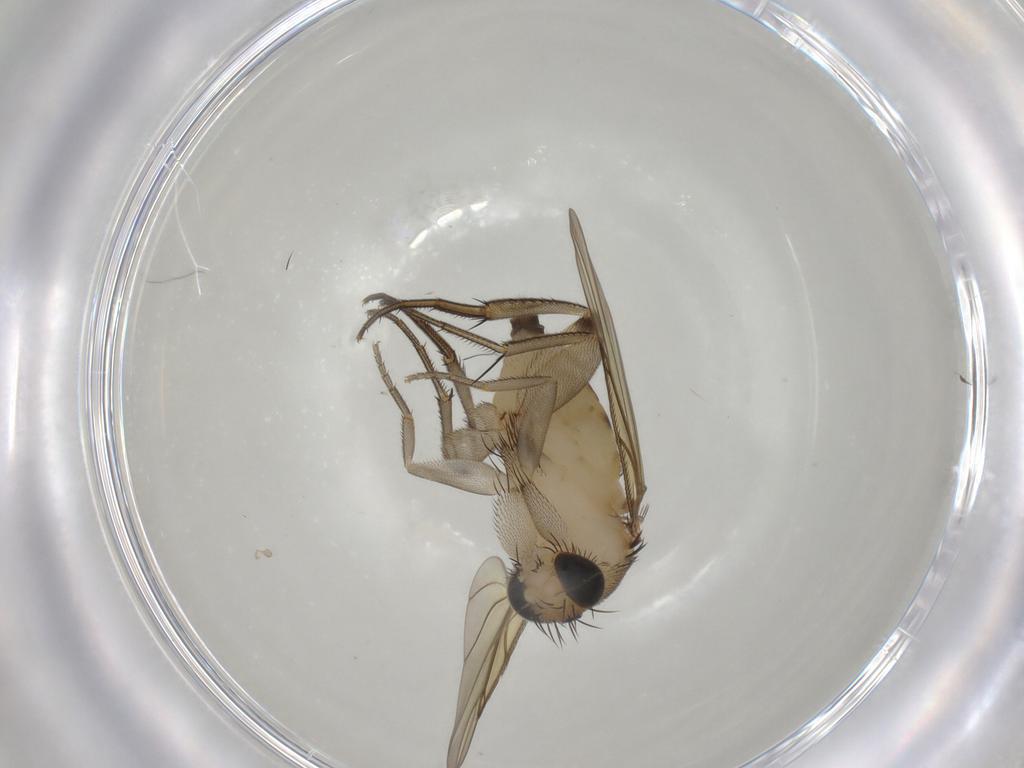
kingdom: Animalia
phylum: Arthropoda
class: Insecta
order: Diptera
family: Phoridae
